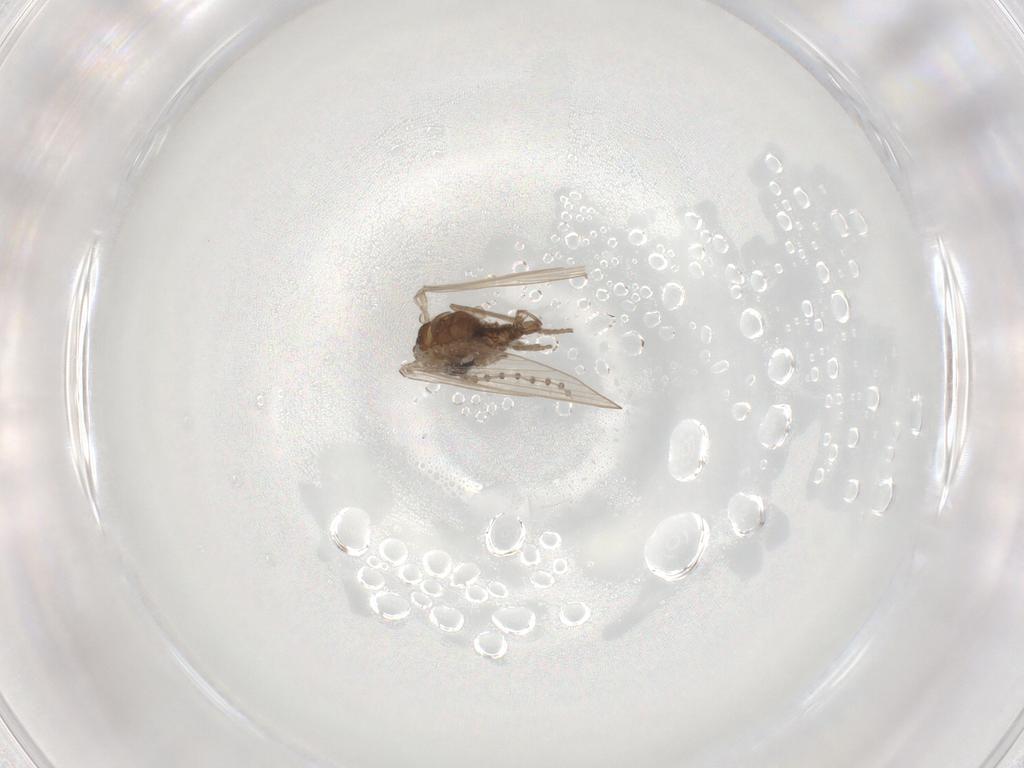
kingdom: Animalia
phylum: Arthropoda
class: Insecta
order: Diptera
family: Psychodidae
